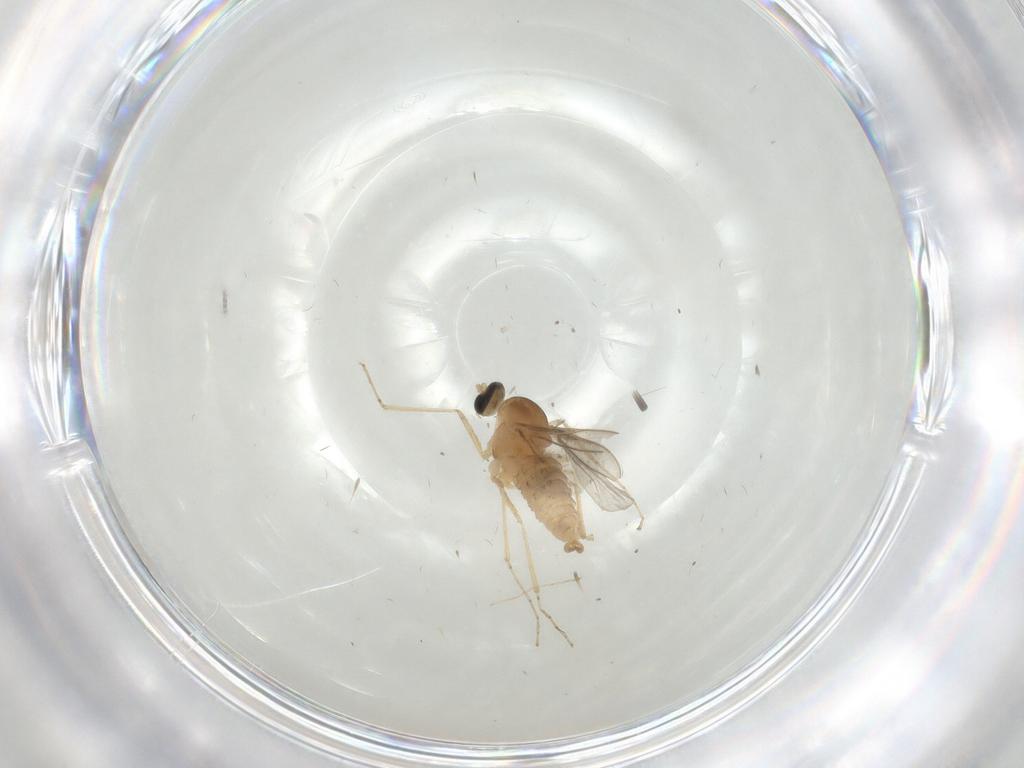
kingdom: Animalia
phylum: Arthropoda
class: Insecta
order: Diptera
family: Cecidomyiidae
